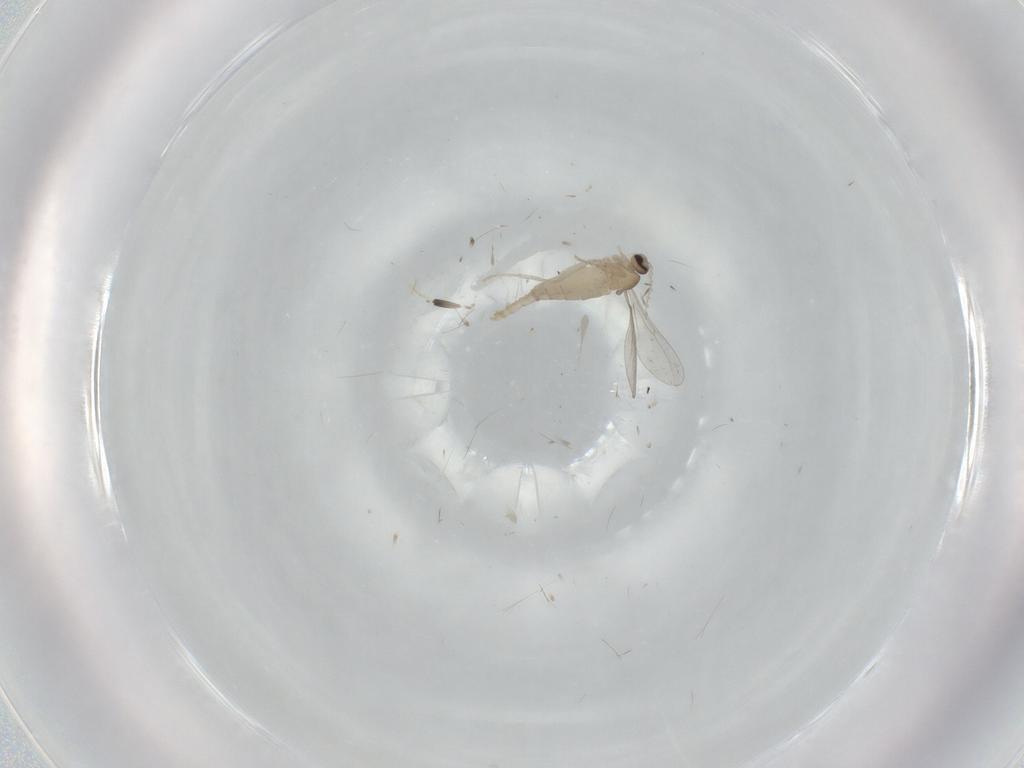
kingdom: Animalia
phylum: Arthropoda
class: Insecta
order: Diptera
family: Cecidomyiidae
